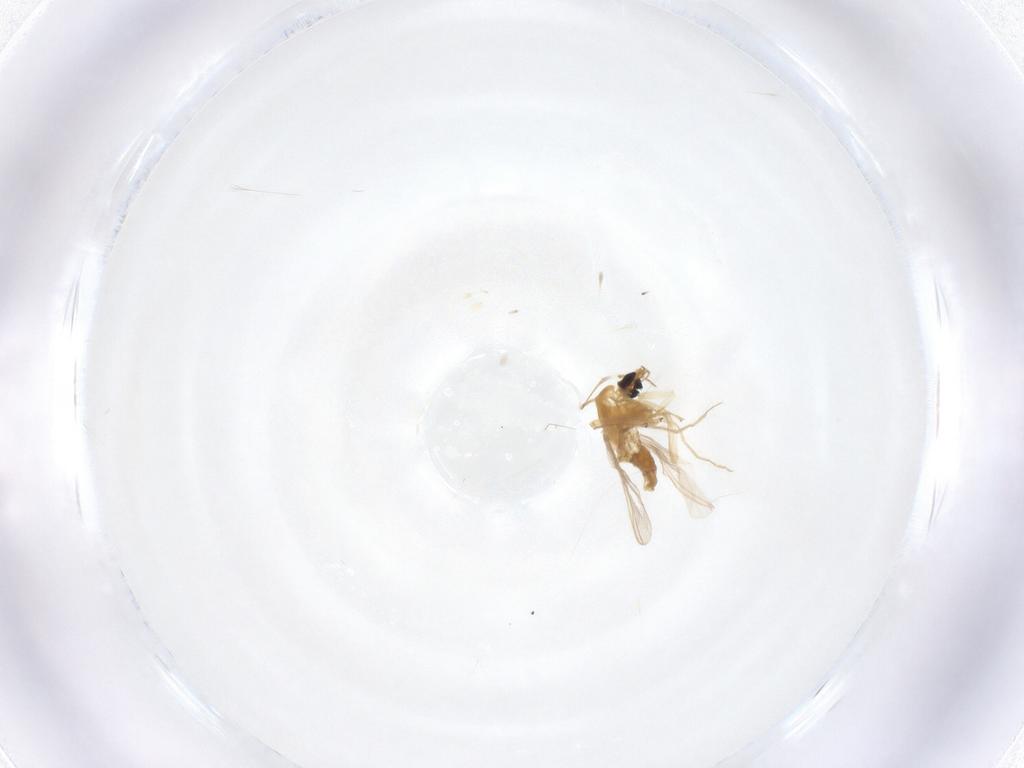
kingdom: Animalia
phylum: Arthropoda
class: Insecta
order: Diptera
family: Chironomidae
